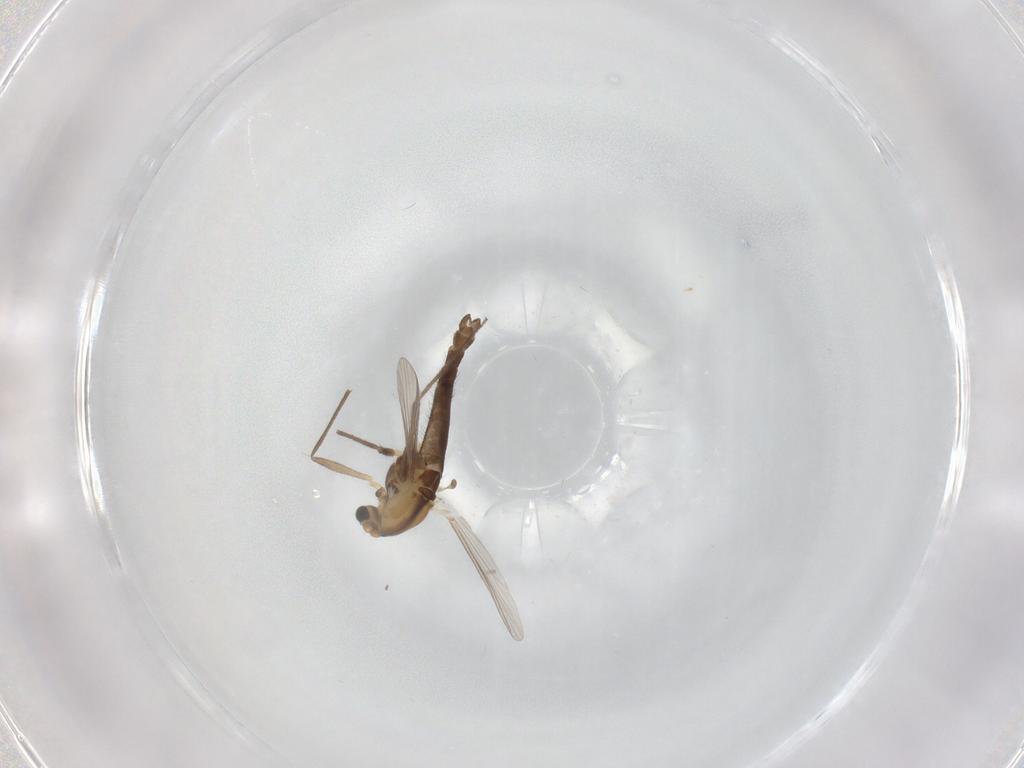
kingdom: Animalia
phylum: Arthropoda
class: Insecta
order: Diptera
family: Chironomidae
